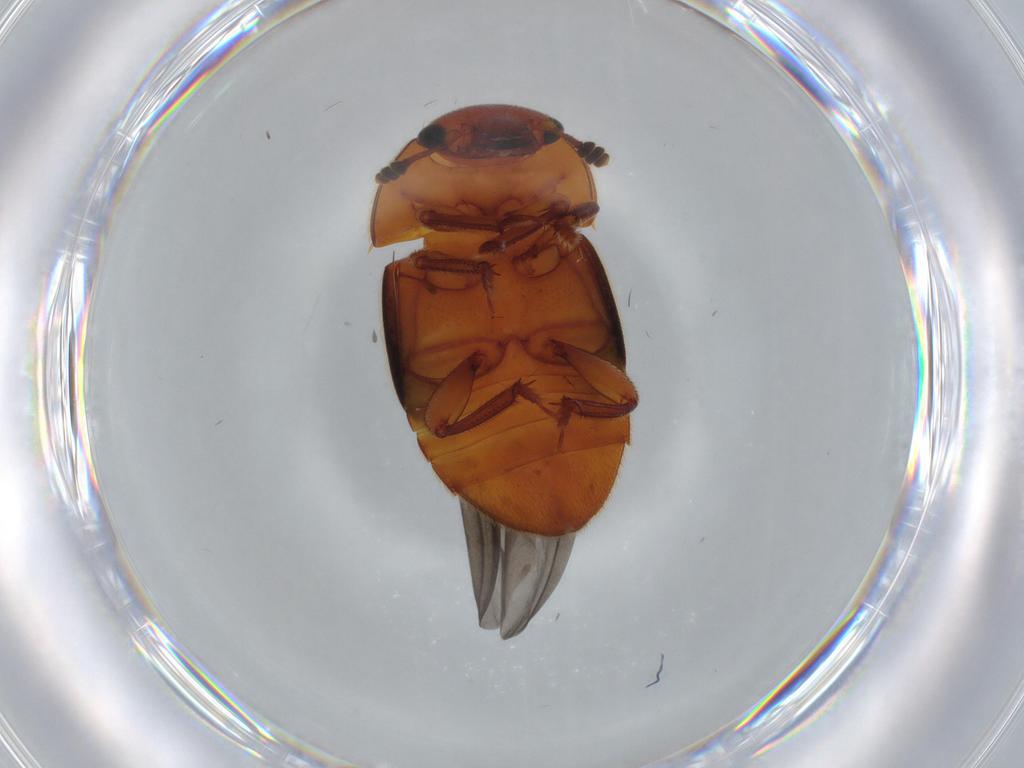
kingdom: Animalia
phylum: Arthropoda
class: Insecta
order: Coleoptera
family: Nitidulidae
